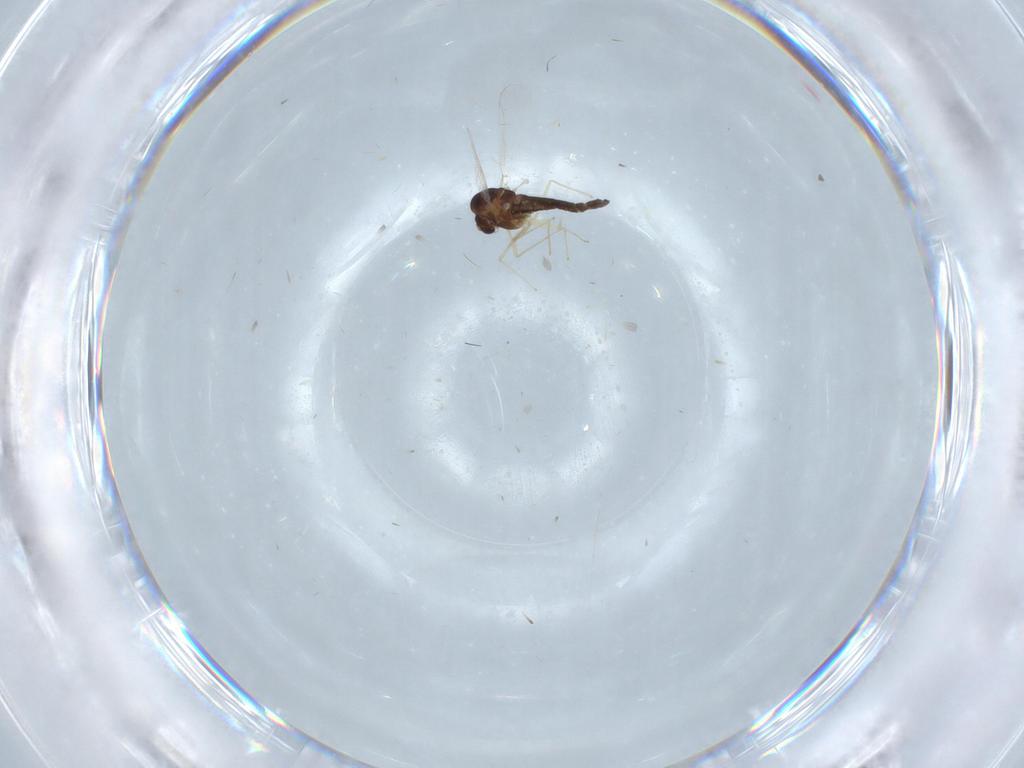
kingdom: Animalia
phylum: Arthropoda
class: Insecta
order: Diptera
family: Chironomidae
